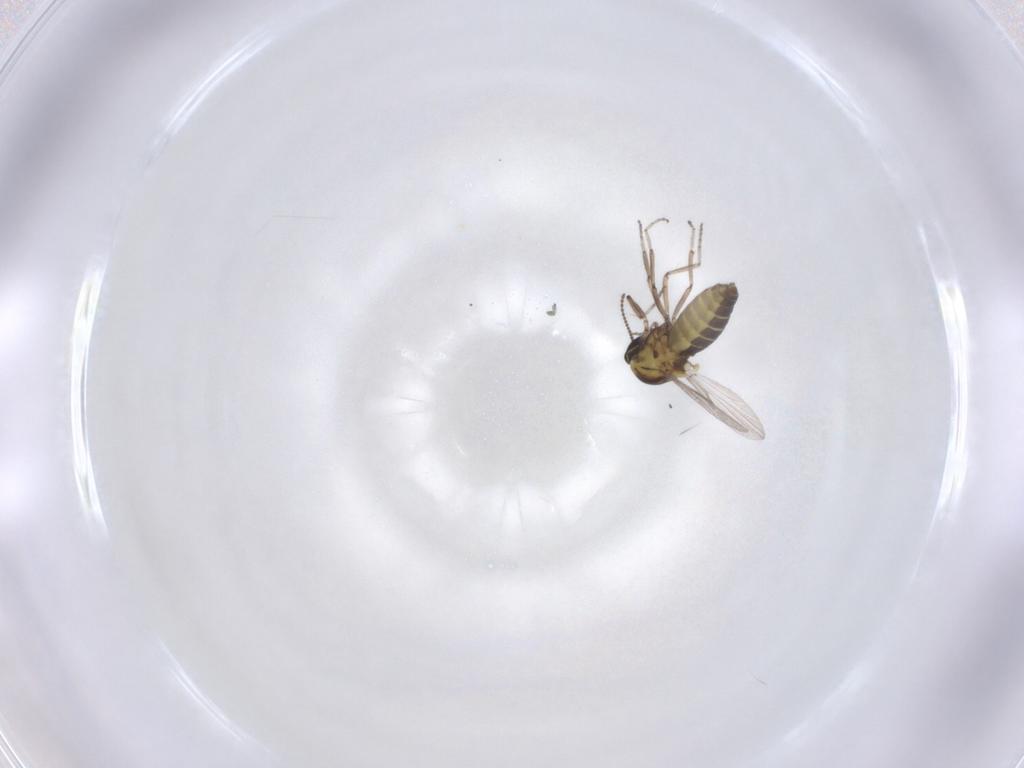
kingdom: Animalia
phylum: Arthropoda
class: Insecta
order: Diptera
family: Ceratopogonidae
